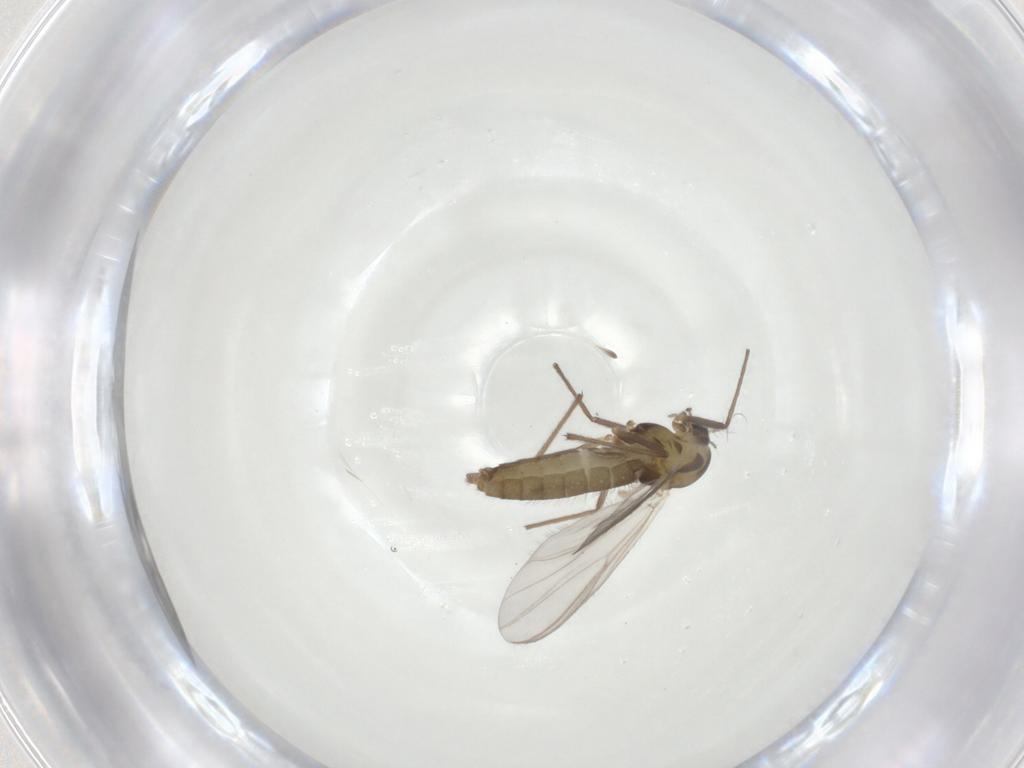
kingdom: Animalia
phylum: Arthropoda
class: Insecta
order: Diptera
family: Chironomidae
